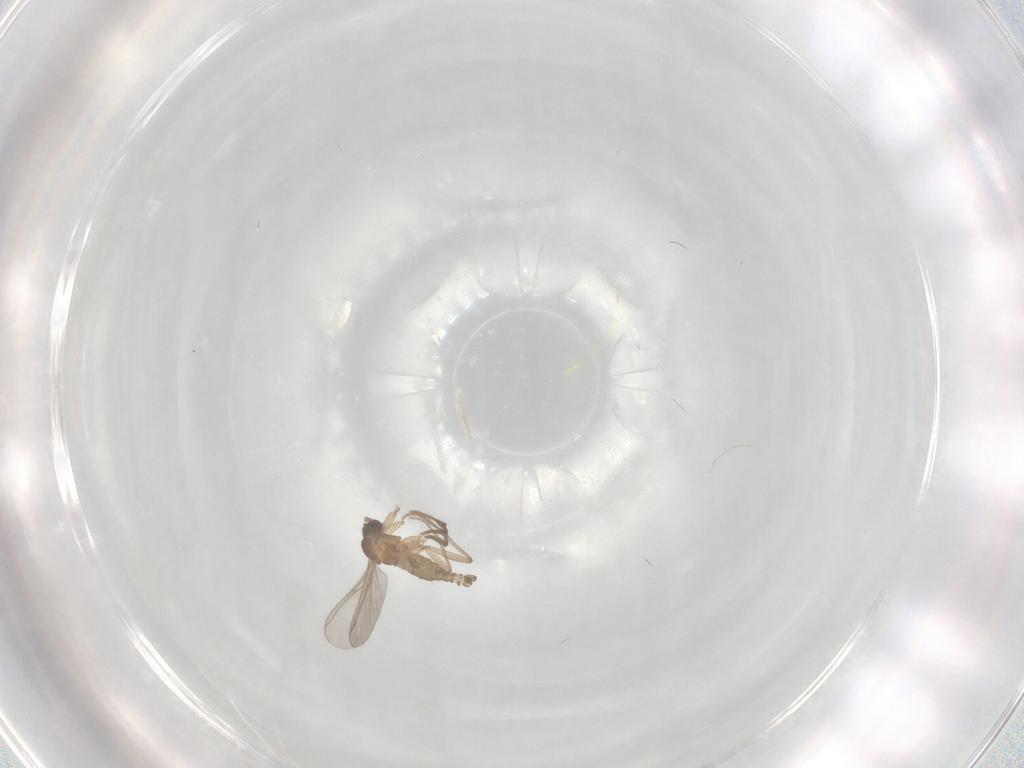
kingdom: Animalia
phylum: Arthropoda
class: Insecta
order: Diptera
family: Sciaridae
